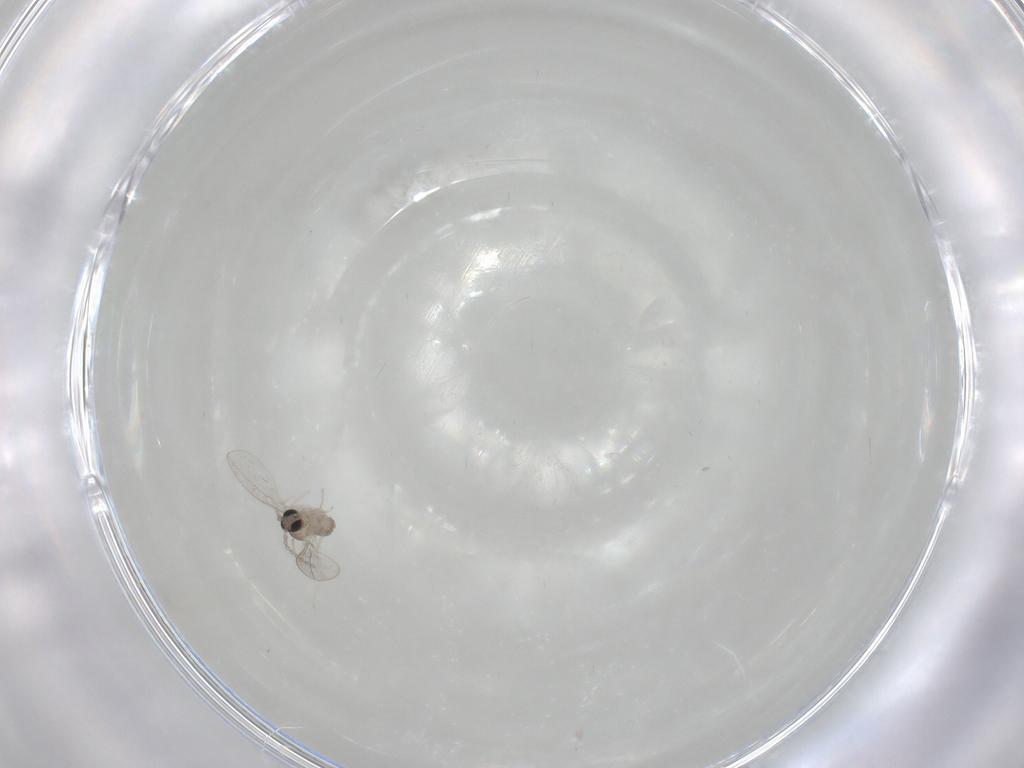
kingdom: Animalia
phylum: Arthropoda
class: Insecta
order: Diptera
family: Cecidomyiidae
